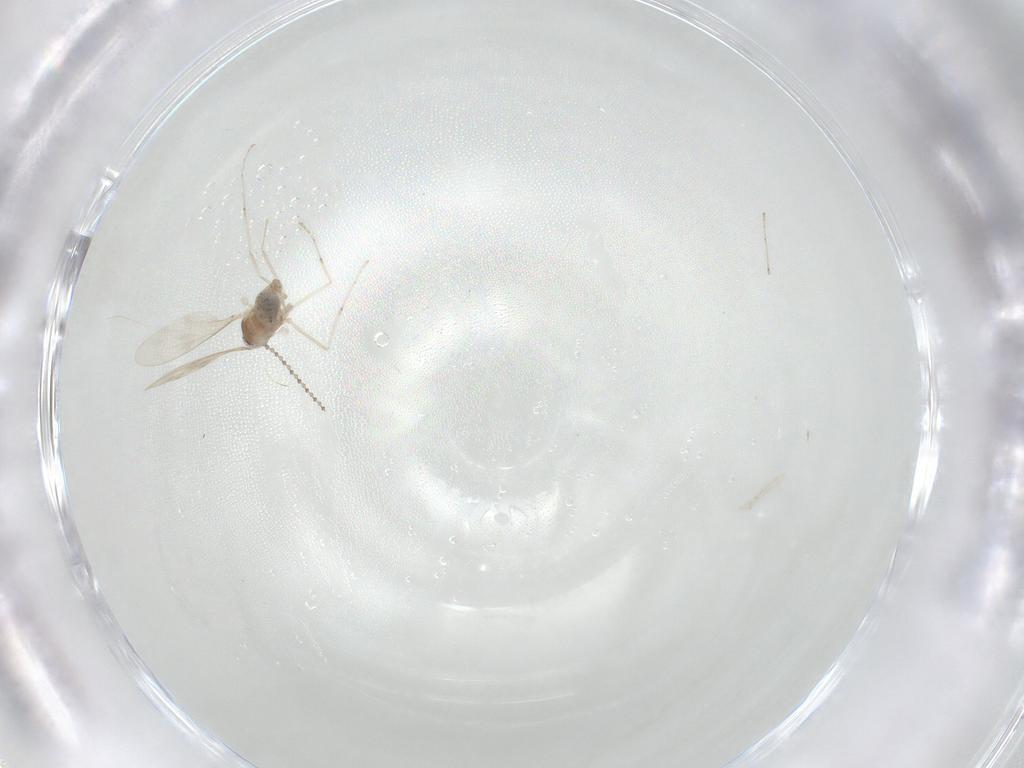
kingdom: Animalia
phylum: Arthropoda
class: Insecta
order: Diptera
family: Cecidomyiidae
